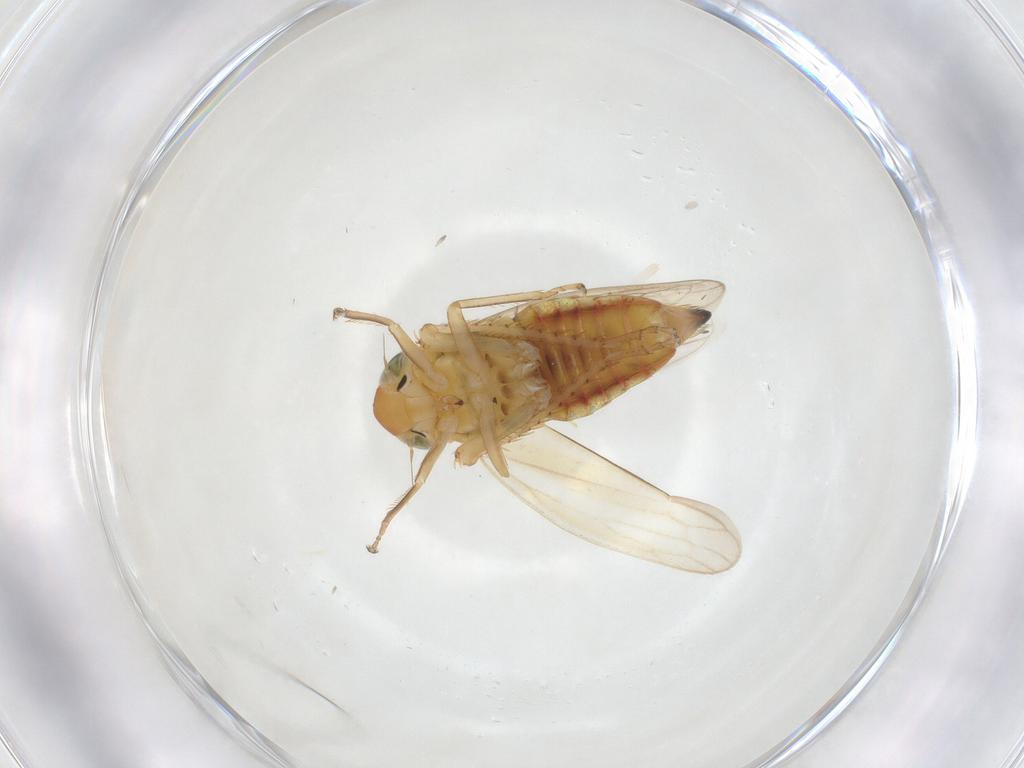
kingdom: Animalia
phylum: Arthropoda
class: Insecta
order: Hemiptera
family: Cicadellidae
